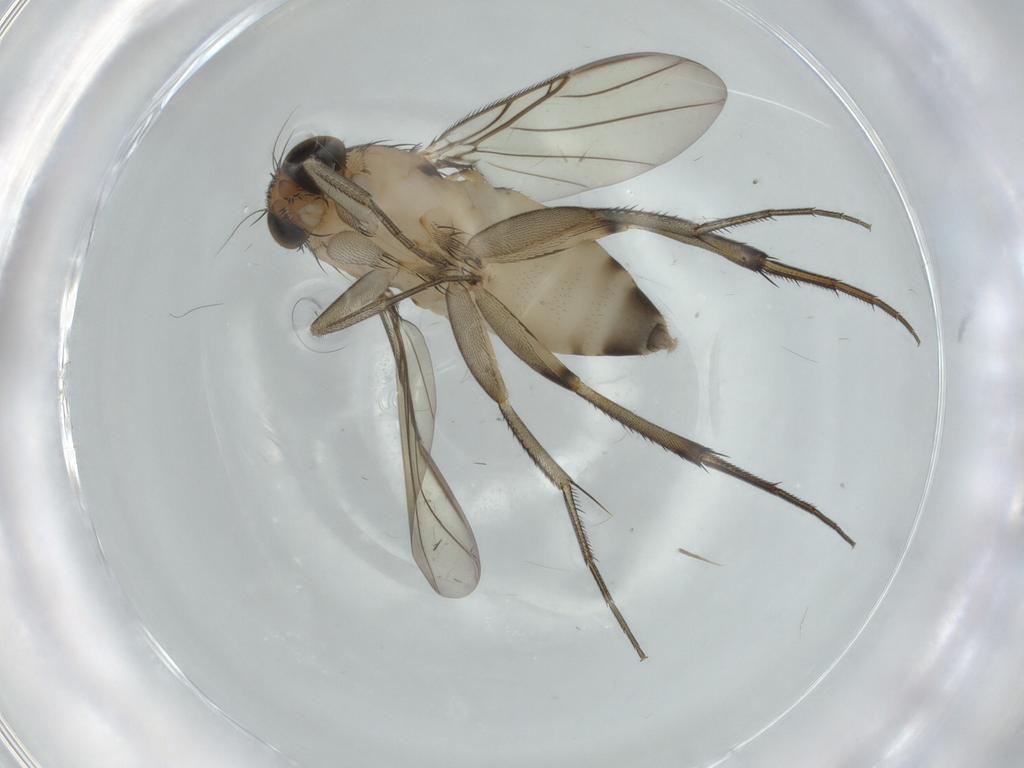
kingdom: Animalia
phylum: Arthropoda
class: Insecta
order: Diptera
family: Phoridae
